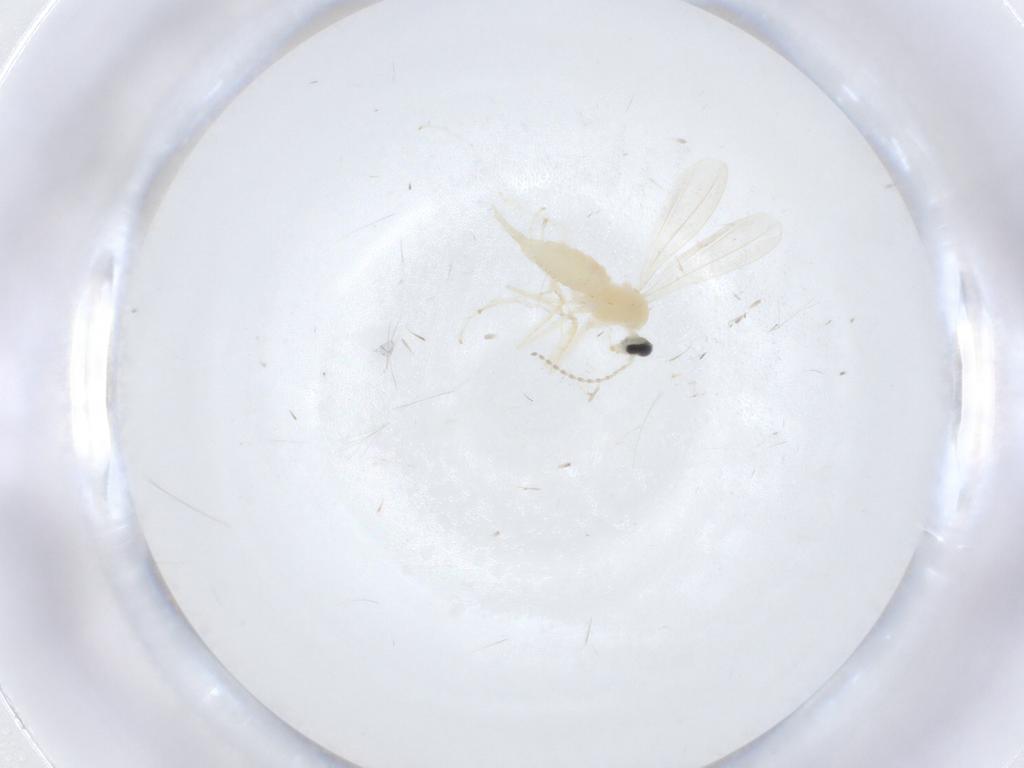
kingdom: Animalia
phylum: Arthropoda
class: Insecta
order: Diptera
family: Cecidomyiidae
